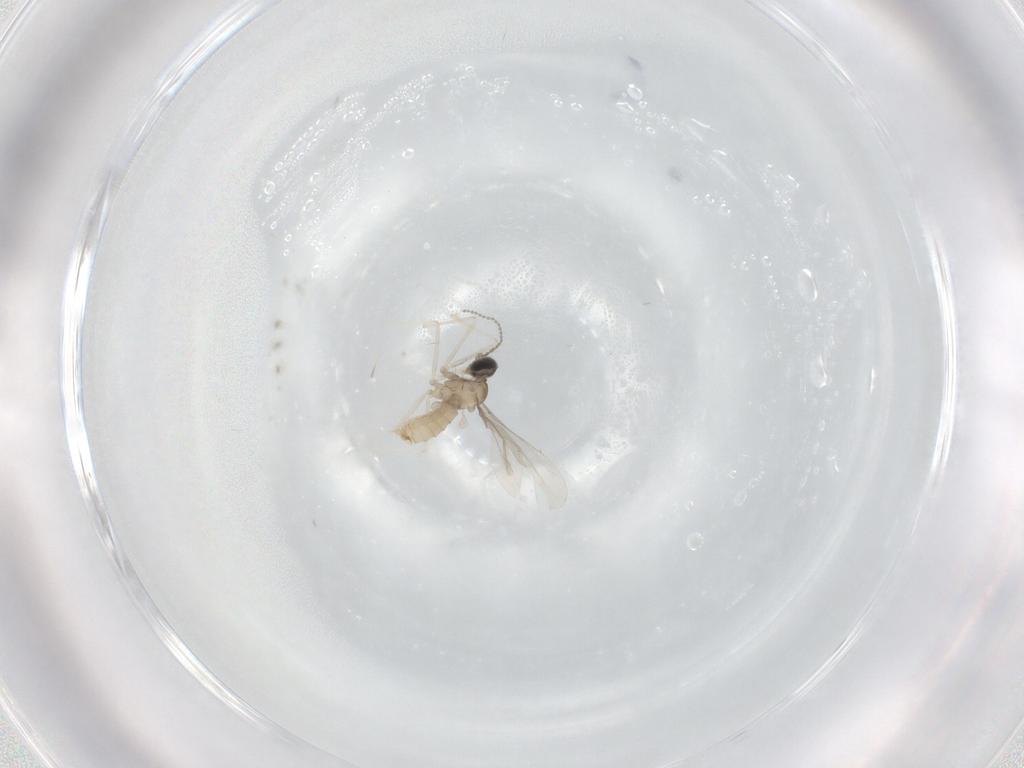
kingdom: Animalia
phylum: Arthropoda
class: Insecta
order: Diptera
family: Cecidomyiidae
